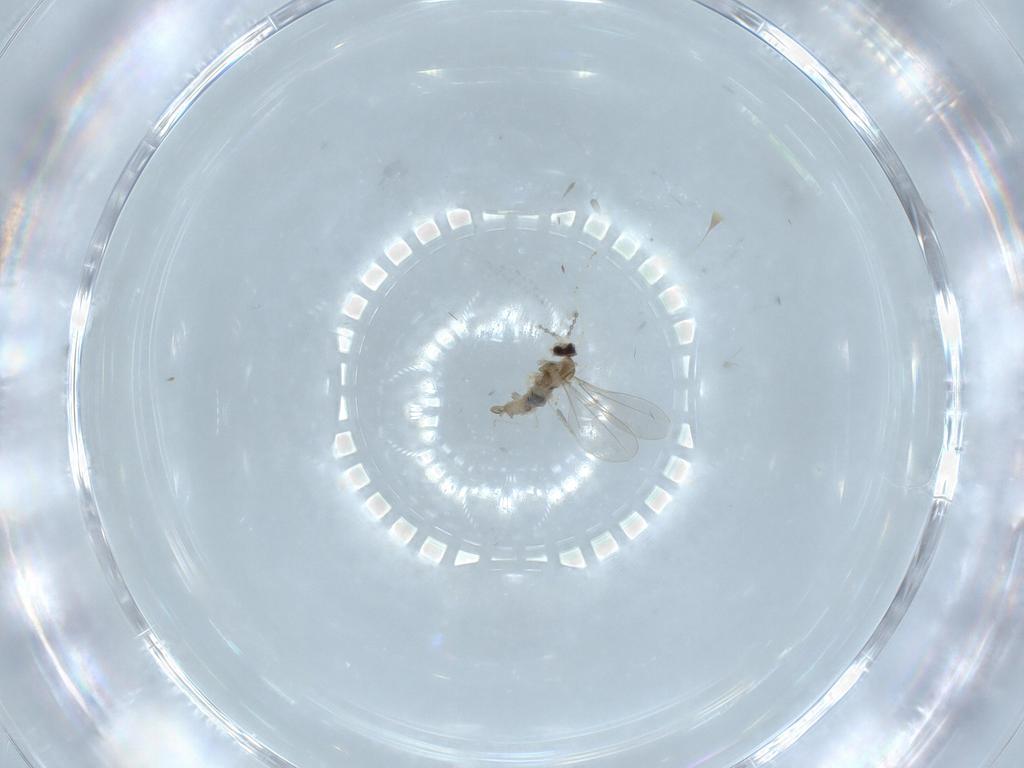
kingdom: Animalia
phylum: Arthropoda
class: Insecta
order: Diptera
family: Cecidomyiidae
